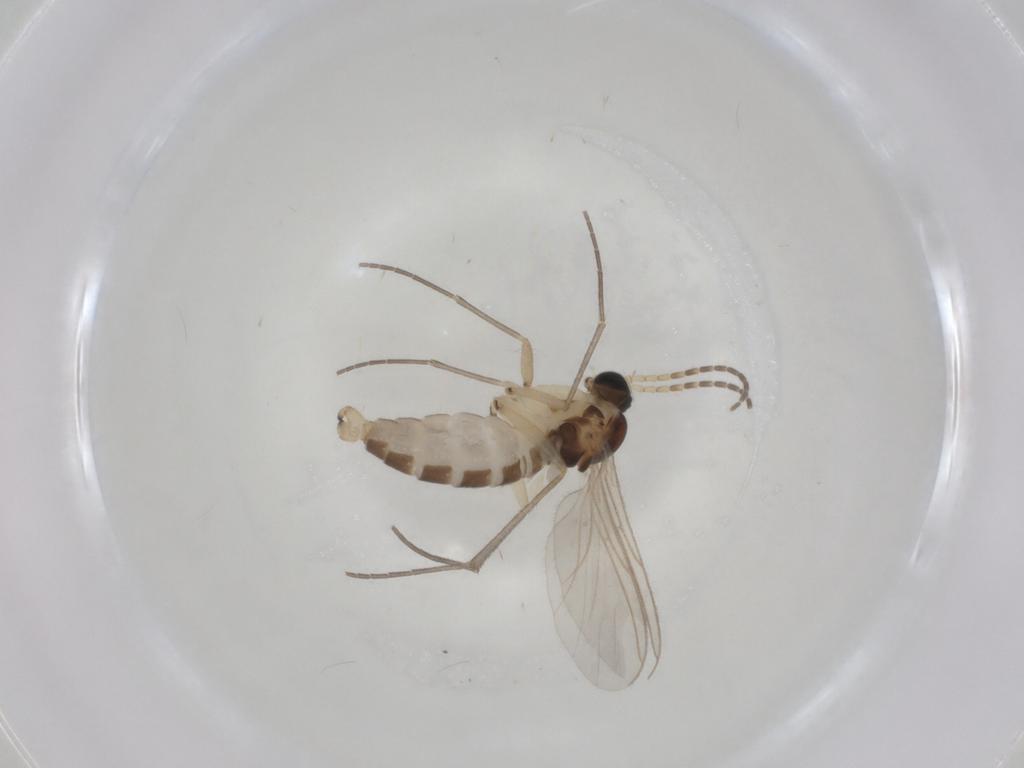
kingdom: Animalia
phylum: Arthropoda
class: Insecta
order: Diptera
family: Sciaridae
